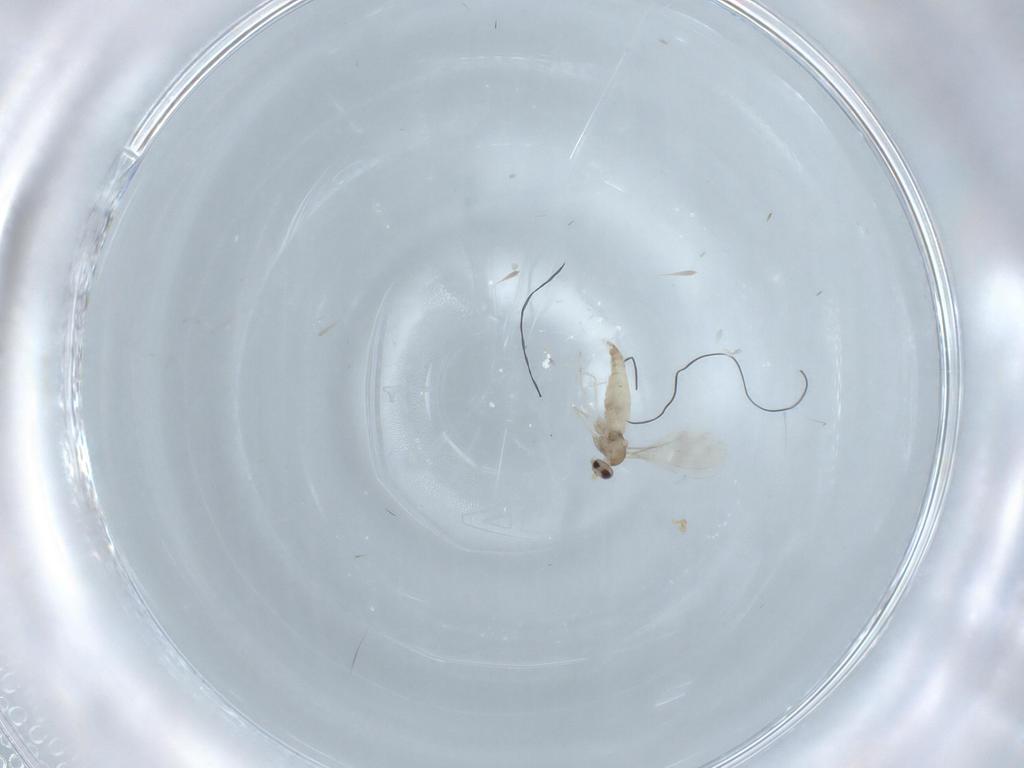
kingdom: Animalia
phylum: Arthropoda
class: Insecta
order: Diptera
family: Cecidomyiidae
